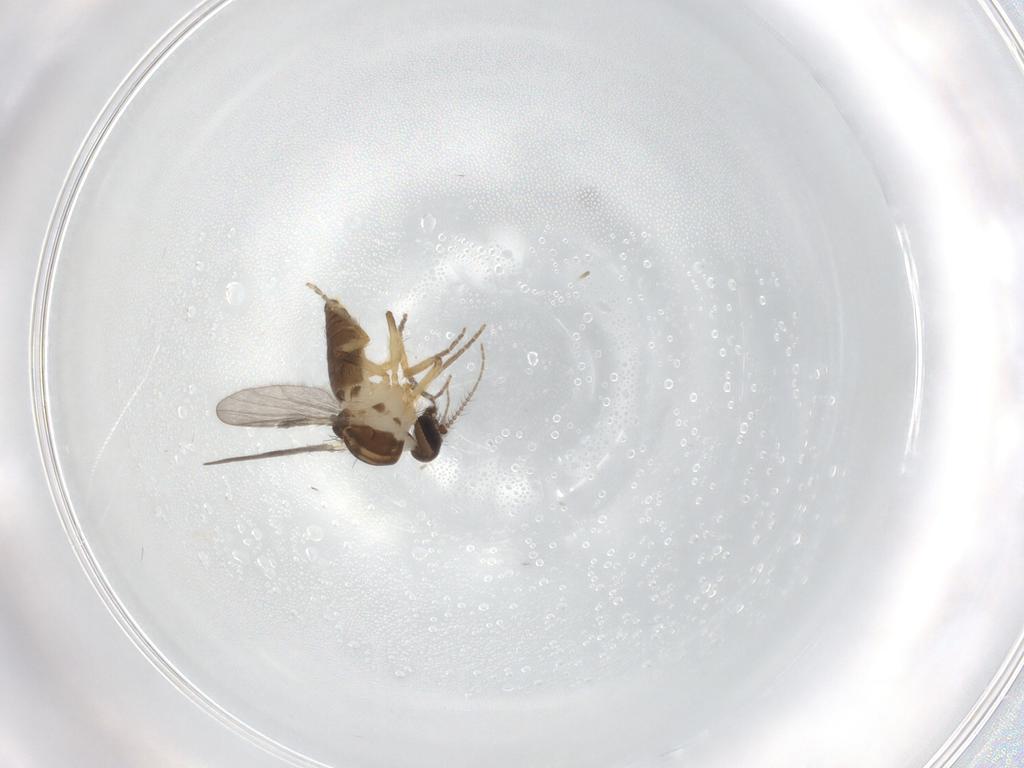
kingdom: Animalia
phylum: Arthropoda
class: Insecta
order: Diptera
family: Ceratopogonidae
